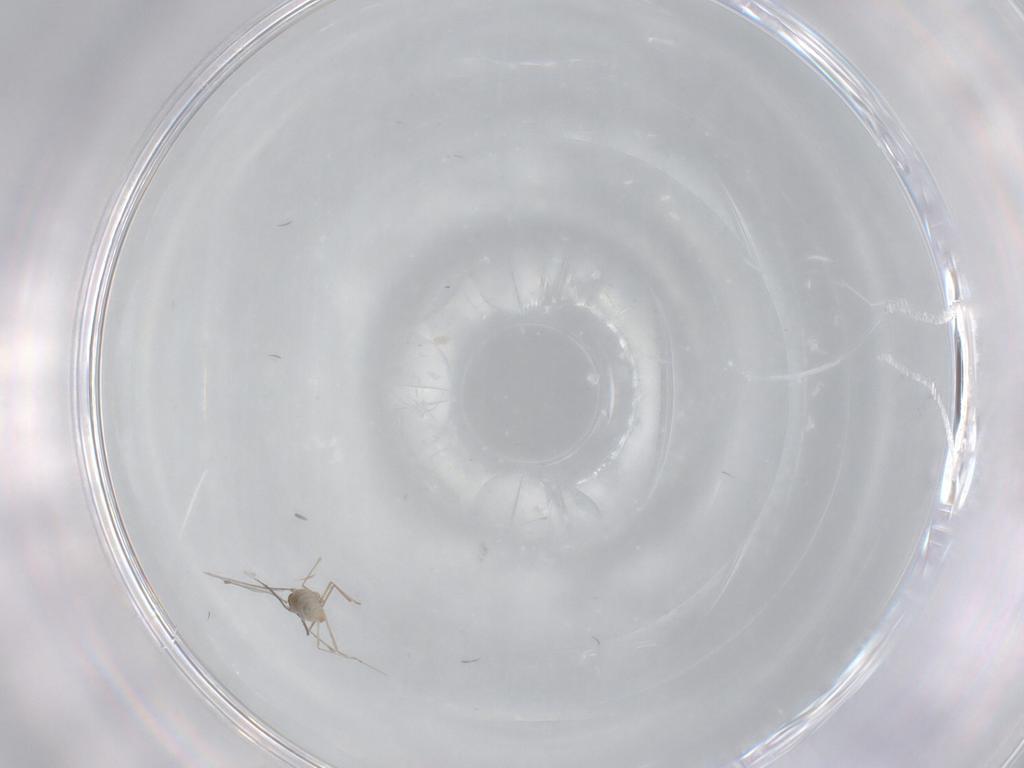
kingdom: Animalia
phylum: Arthropoda
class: Insecta
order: Diptera
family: Cecidomyiidae
